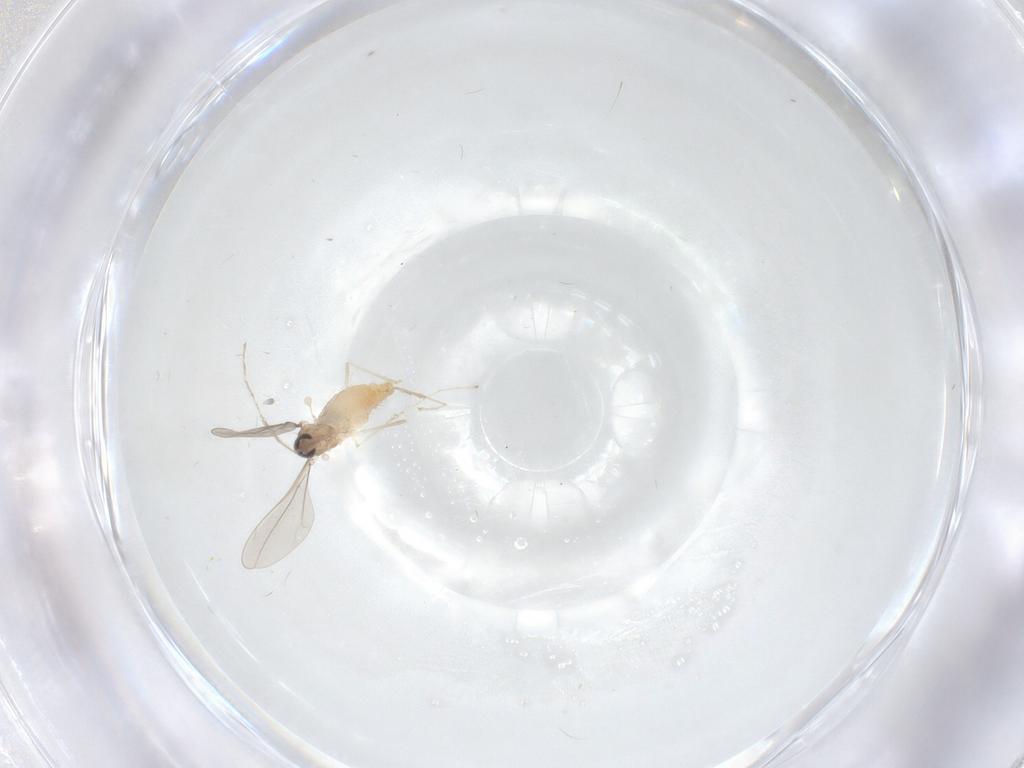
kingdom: Animalia
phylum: Arthropoda
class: Insecta
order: Diptera
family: Cecidomyiidae
